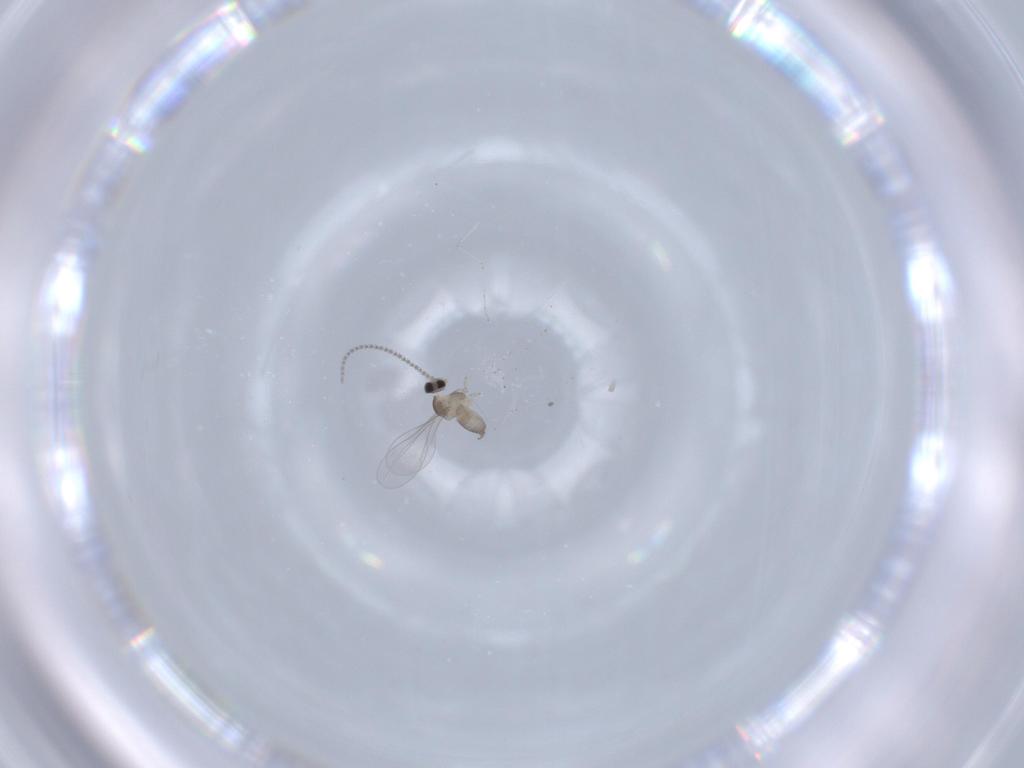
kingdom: Animalia
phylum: Arthropoda
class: Insecta
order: Diptera
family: Cecidomyiidae
